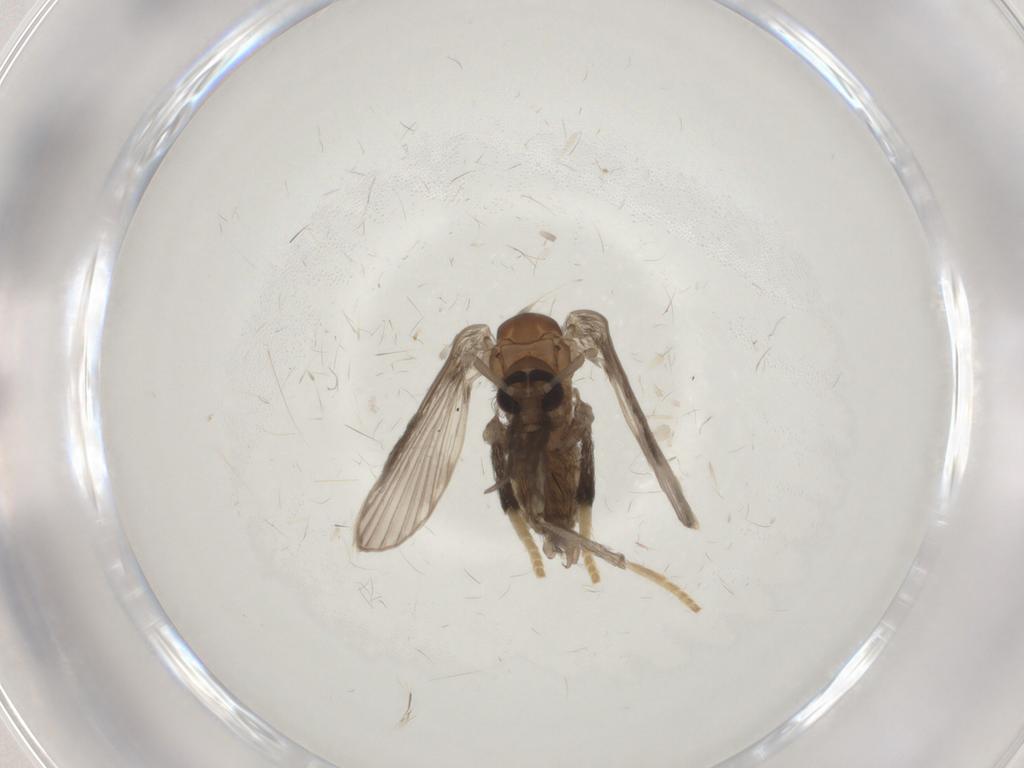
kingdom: Animalia
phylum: Arthropoda
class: Insecta
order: Diptera
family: Psychodidae
